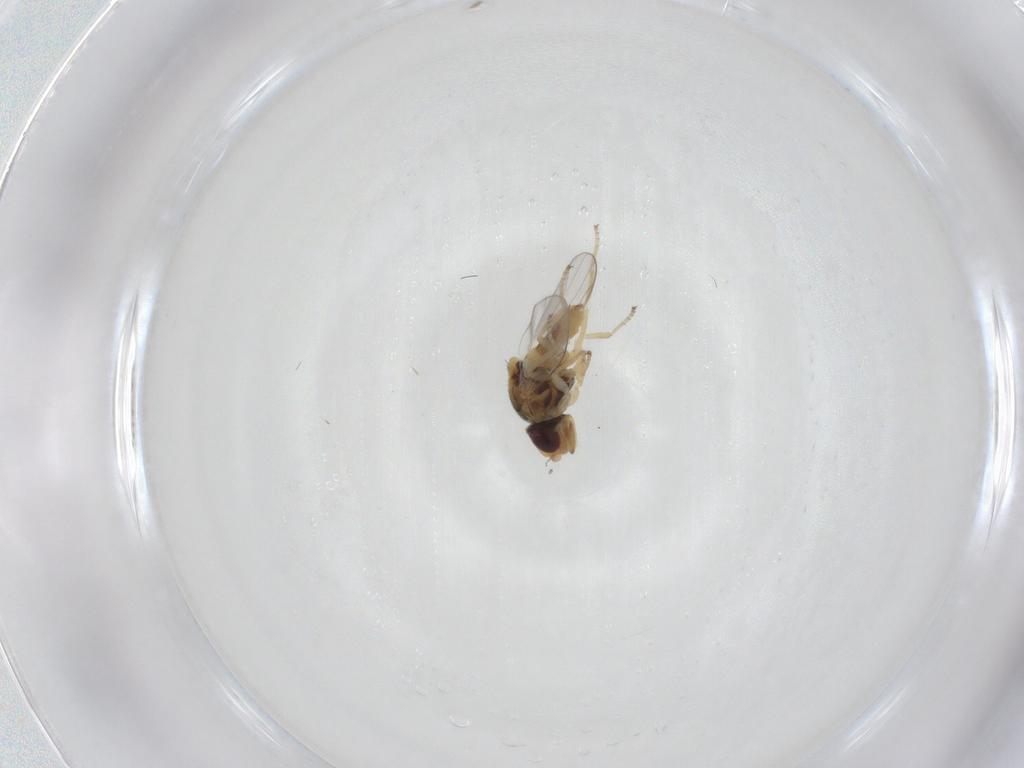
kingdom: Animalia
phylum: Arthropoda
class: Insecta
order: Diptera
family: Chloropidae
